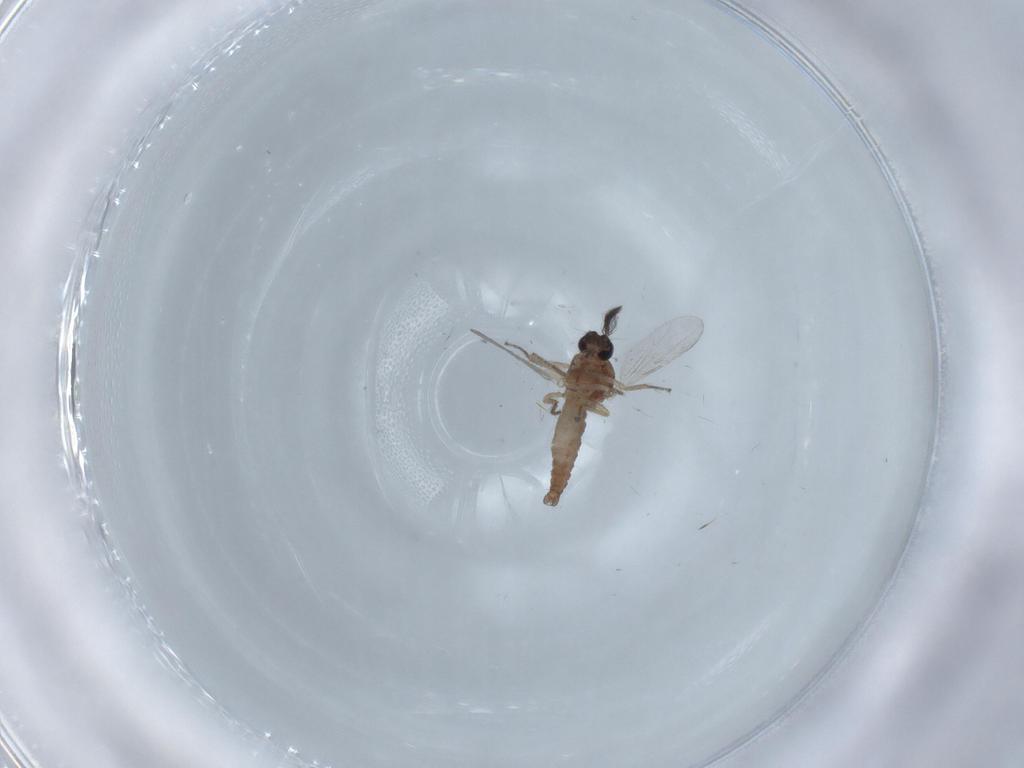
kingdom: Animalia
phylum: Arthropoda
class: Insecta
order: Diptera
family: Ceratopogonidae
